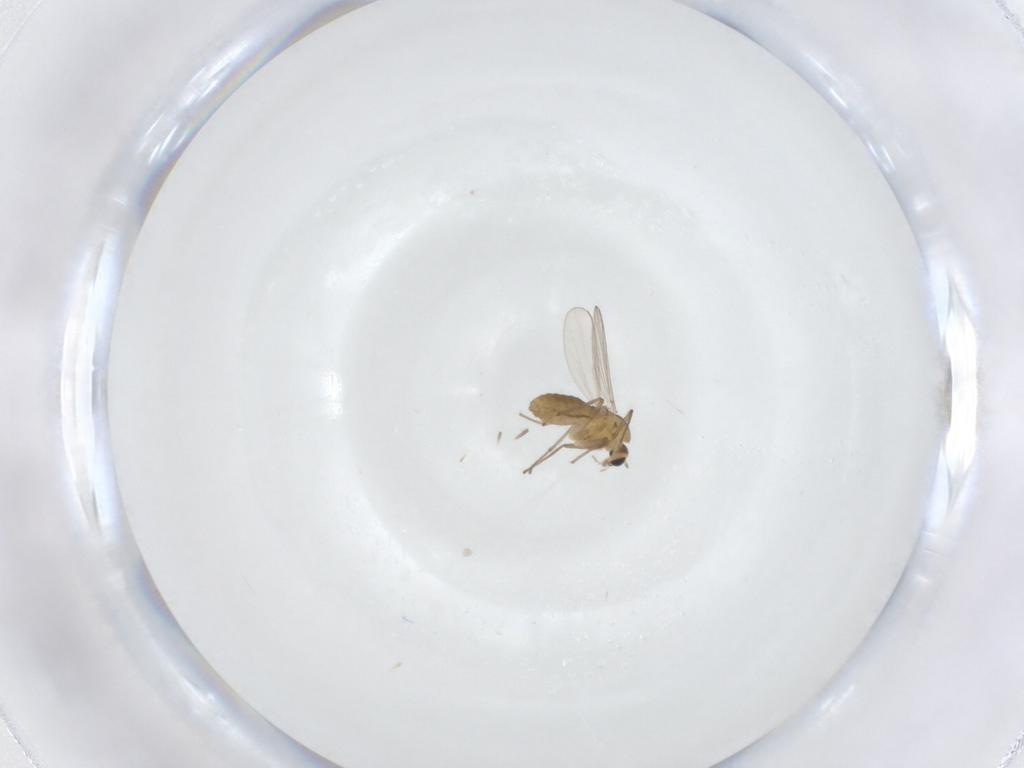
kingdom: Animalia
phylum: Arthropoda
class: Insecta
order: Diptera
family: Chironomidae
